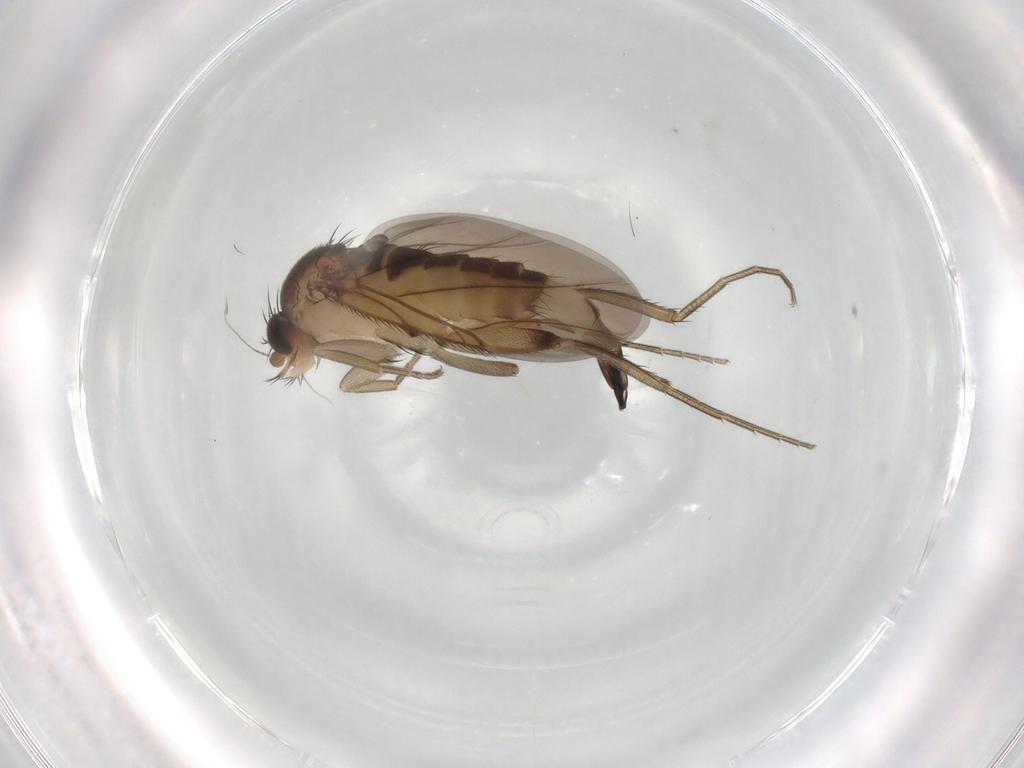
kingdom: Animalia
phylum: Arthropoda
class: Insecta
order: Diptera
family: Phoridae
